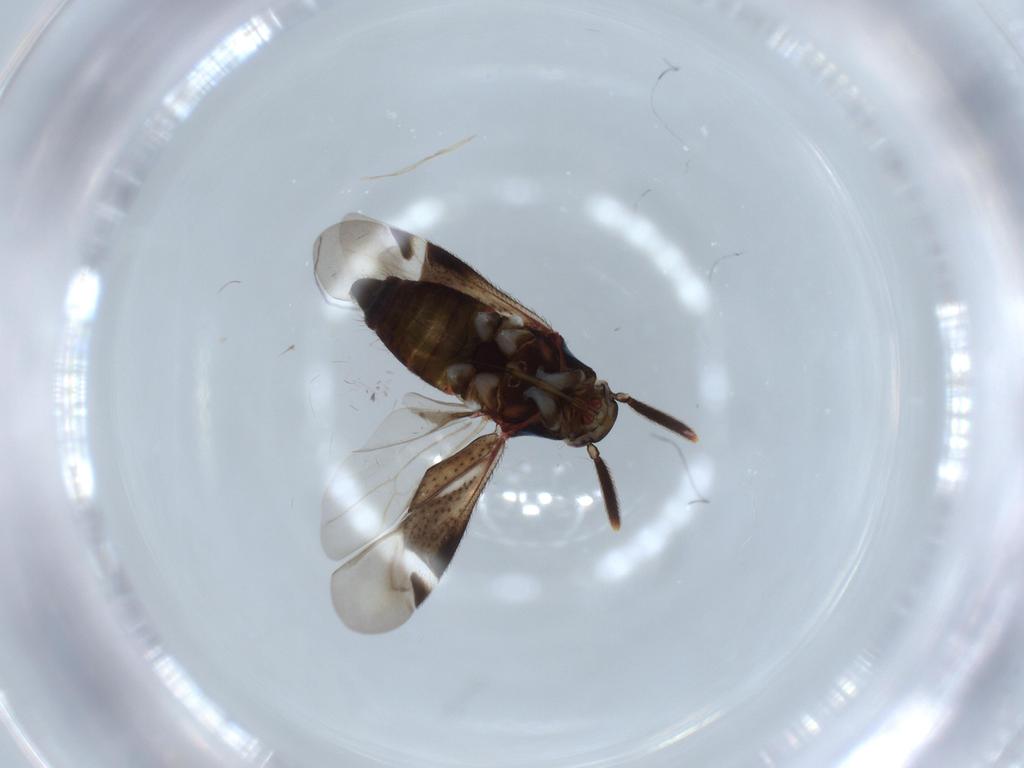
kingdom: Animalia
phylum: Arthropoda
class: Insecta
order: Hemiptera
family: Miridae
